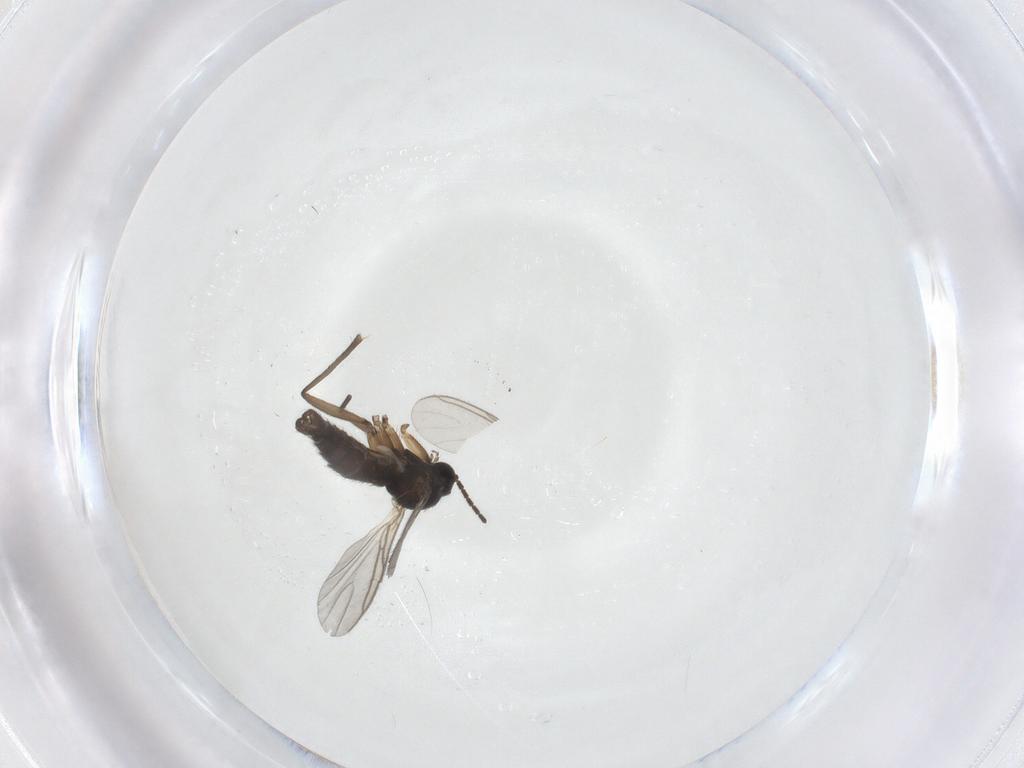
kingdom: Animalia
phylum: Arthropoda
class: Insecta
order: Diptera
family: Sciaridae
